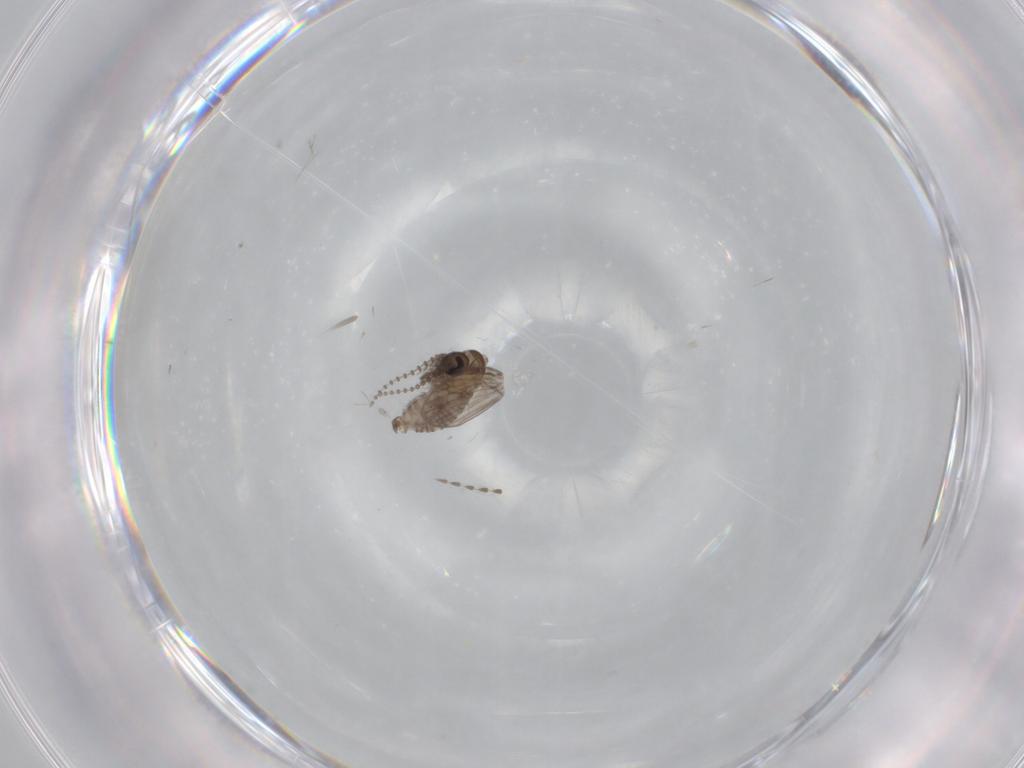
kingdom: Animalia
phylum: Arthropoda
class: Insecta
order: Diptera
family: Psychodidae
